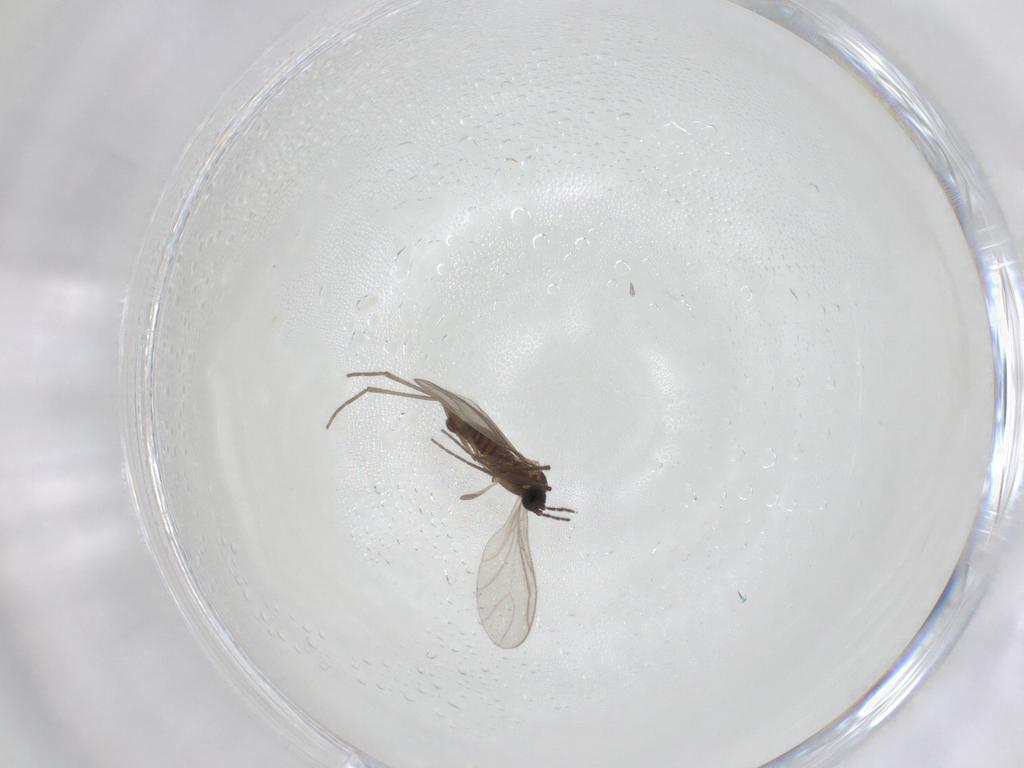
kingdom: Animalia
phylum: Arthropoda
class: Insecta
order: Diptera
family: Sciaridae
